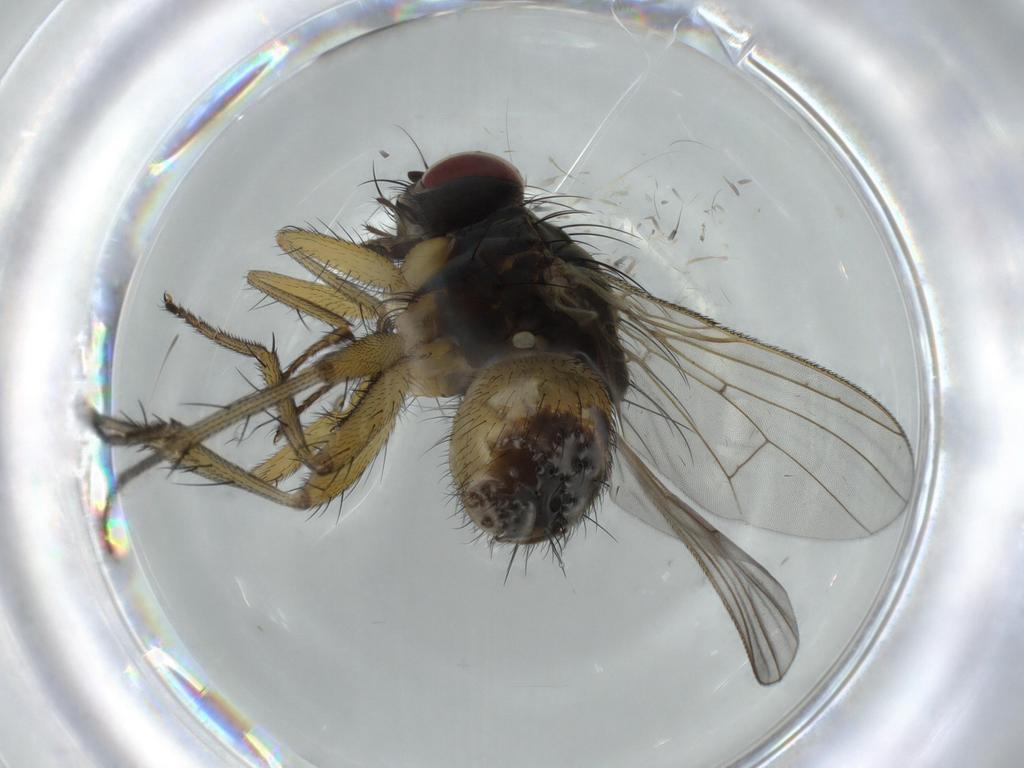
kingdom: Animalia
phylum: Arthropoda
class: Insecta
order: Diptera
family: Muscidae
